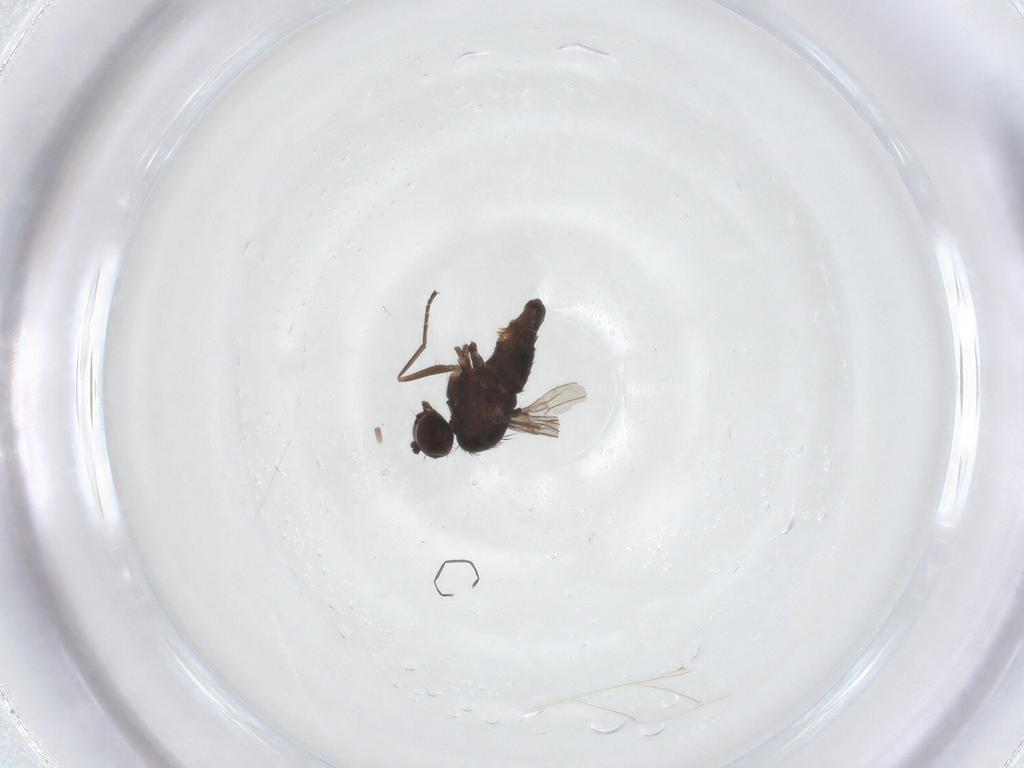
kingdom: Animalia
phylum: Arthropoda
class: Insecta
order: Diptera
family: Dolichopodidae
